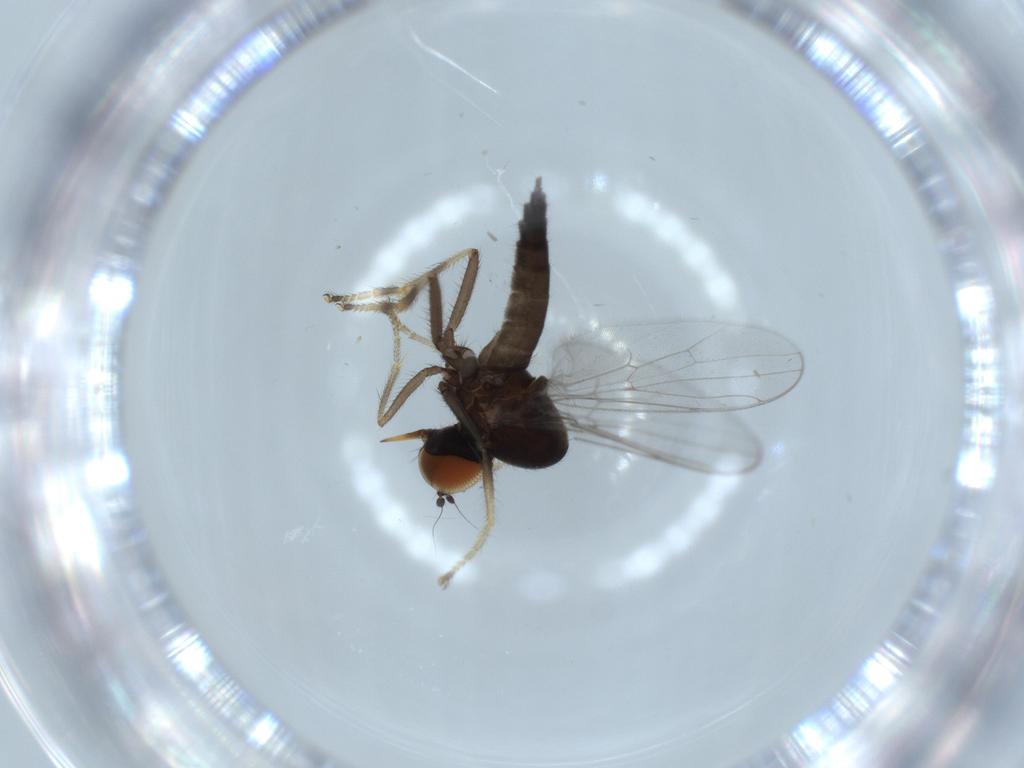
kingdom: Animalia
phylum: Arthropoda
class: Insecta
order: Diptera
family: Hybotidae
